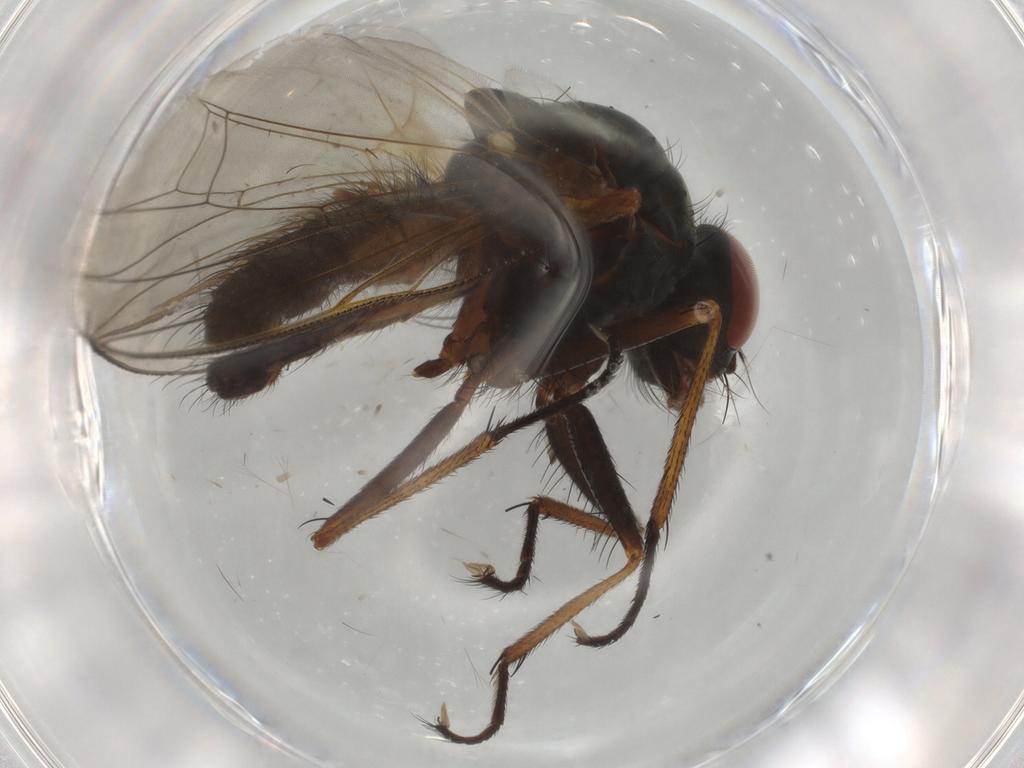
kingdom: Animalia
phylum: Arthropoda
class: Insecta
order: Diptera
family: Anthomyiidae
